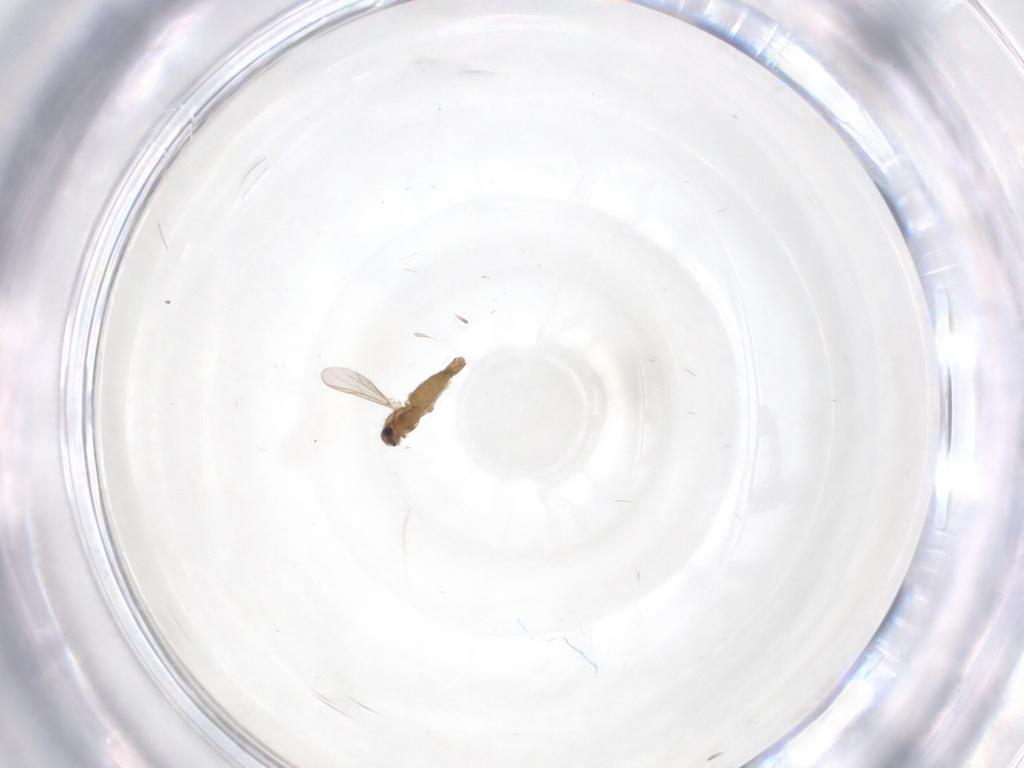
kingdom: Animalia
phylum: Arthropoda
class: Insecta
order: Diptera
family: Chironomidae
